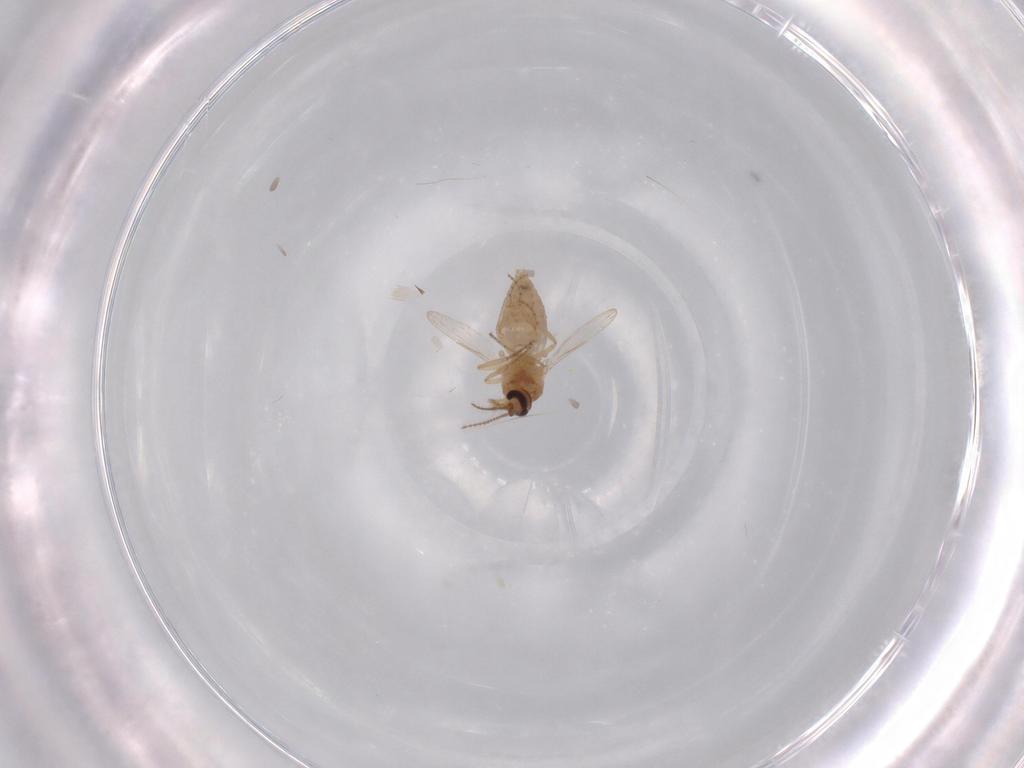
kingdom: Animalia
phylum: Arthropoda
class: Insecta
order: Diptera
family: Ceratopogonidae
